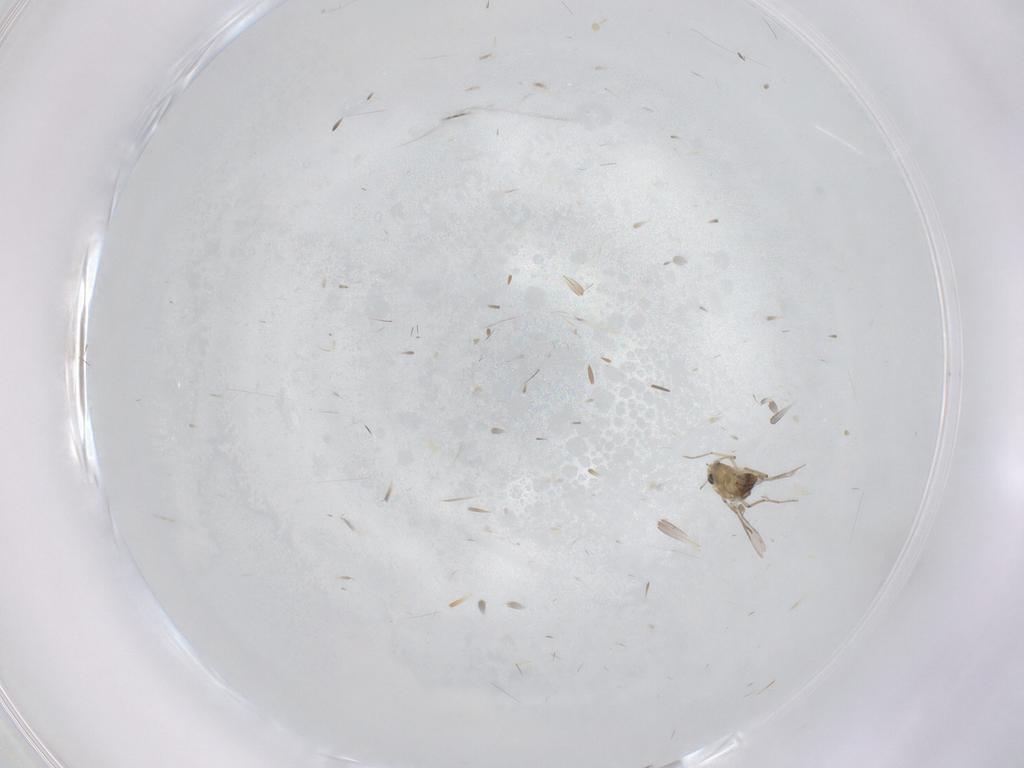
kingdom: Animalia
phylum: Arthropoda
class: Insecta
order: Diptera
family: Chironomidae
